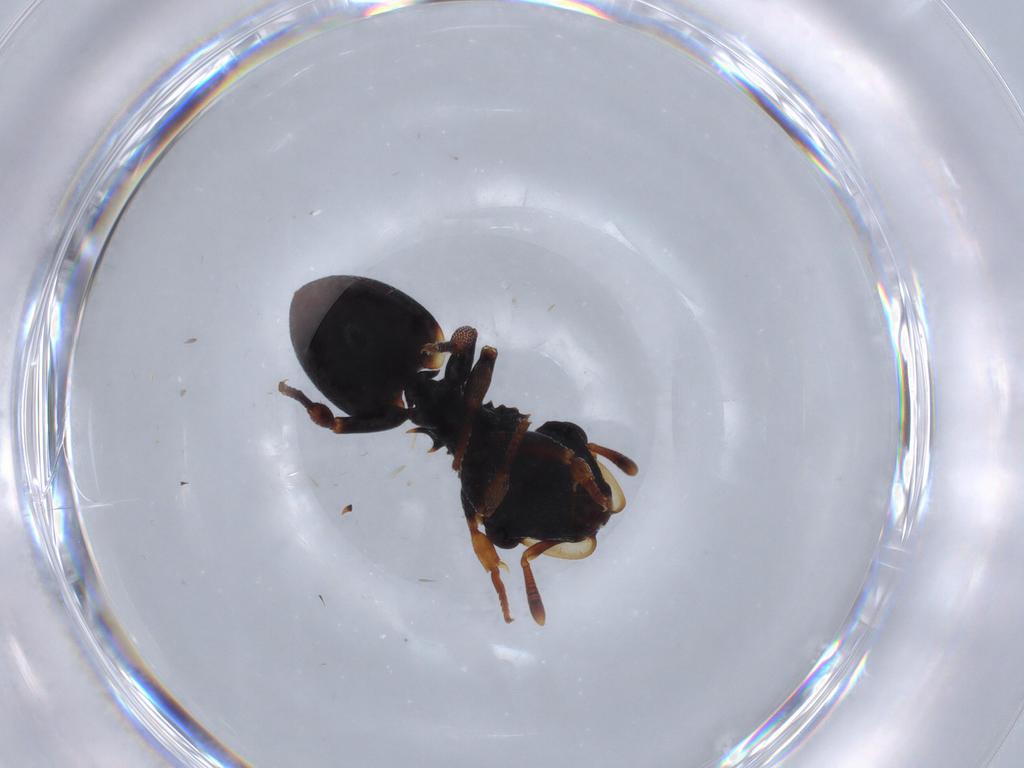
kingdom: Animalia
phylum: Arthropoda
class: Insecta
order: Hymenoptera
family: Formicidae
